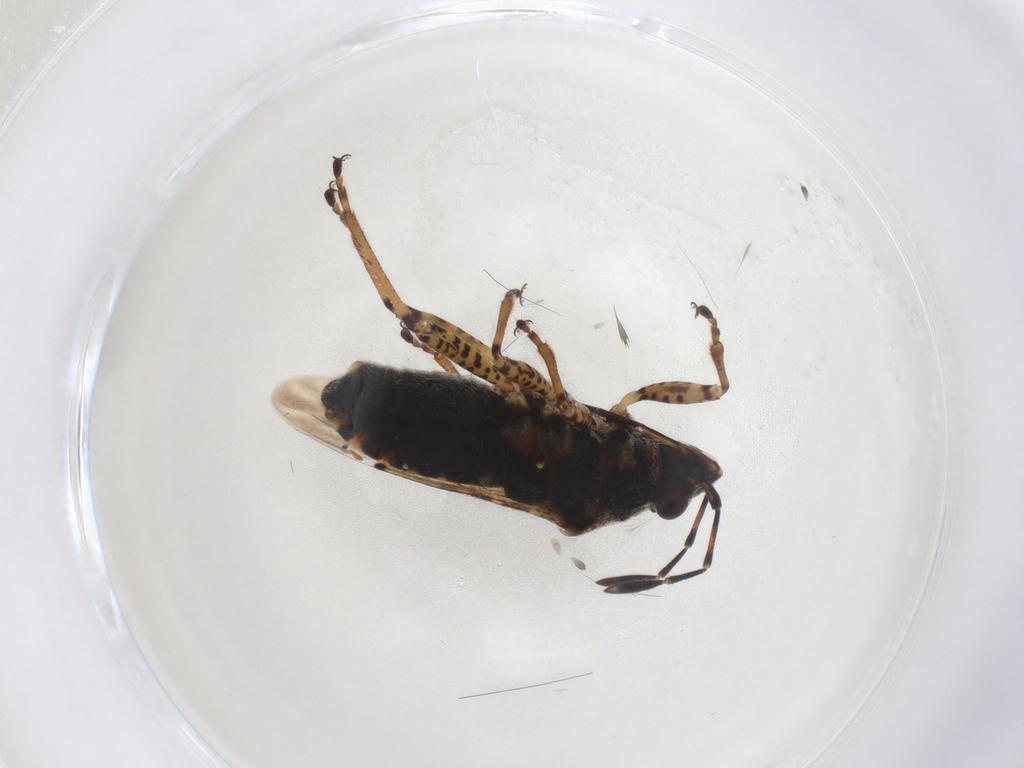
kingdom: Animalia
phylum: Arthropoda
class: Insecta
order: Hemiptera
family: Lygaeidae
